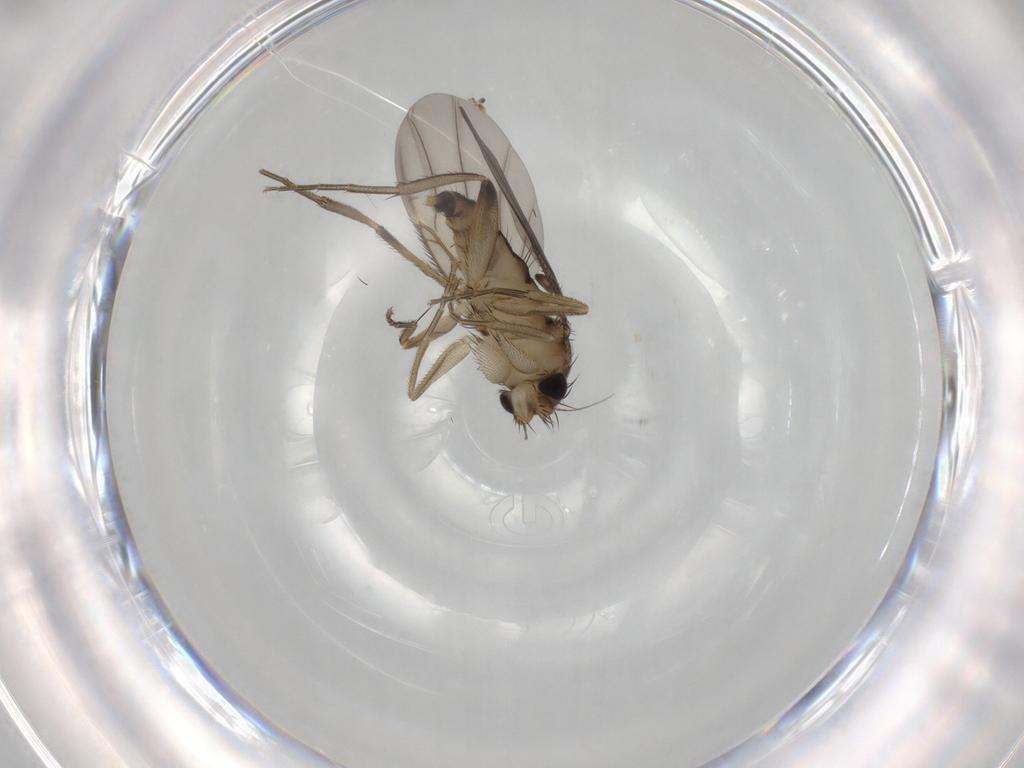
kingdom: Animalia
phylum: Arthropoda
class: Insecta
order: Diptera
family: Phoridae
